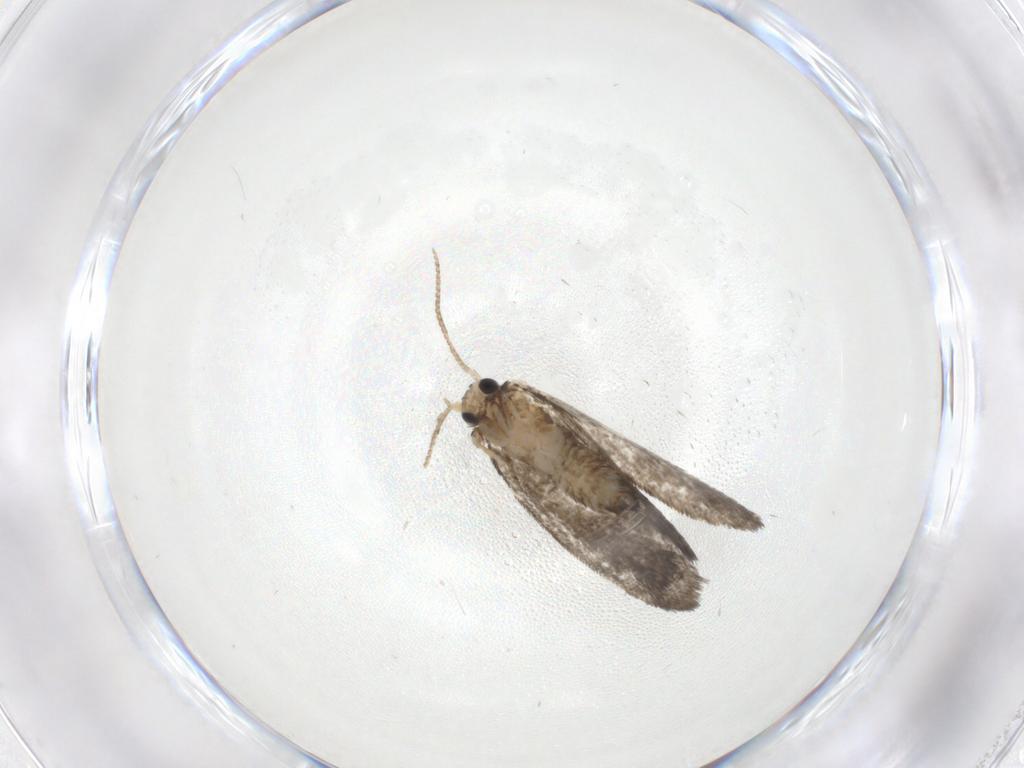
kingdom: Animalia
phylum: Arthropoda
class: Insecta
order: Lepidoptera
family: Psychidae
